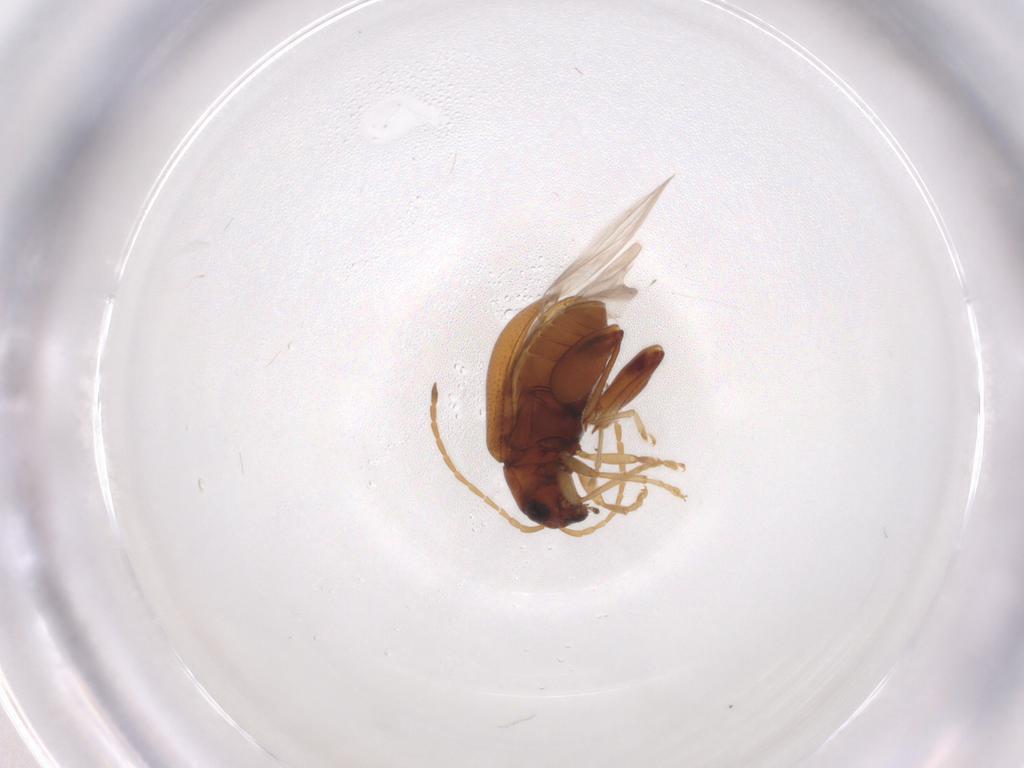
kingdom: Animalia
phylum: Arthropoda
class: Insecta
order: Coleoptera
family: Chrysomelidae
